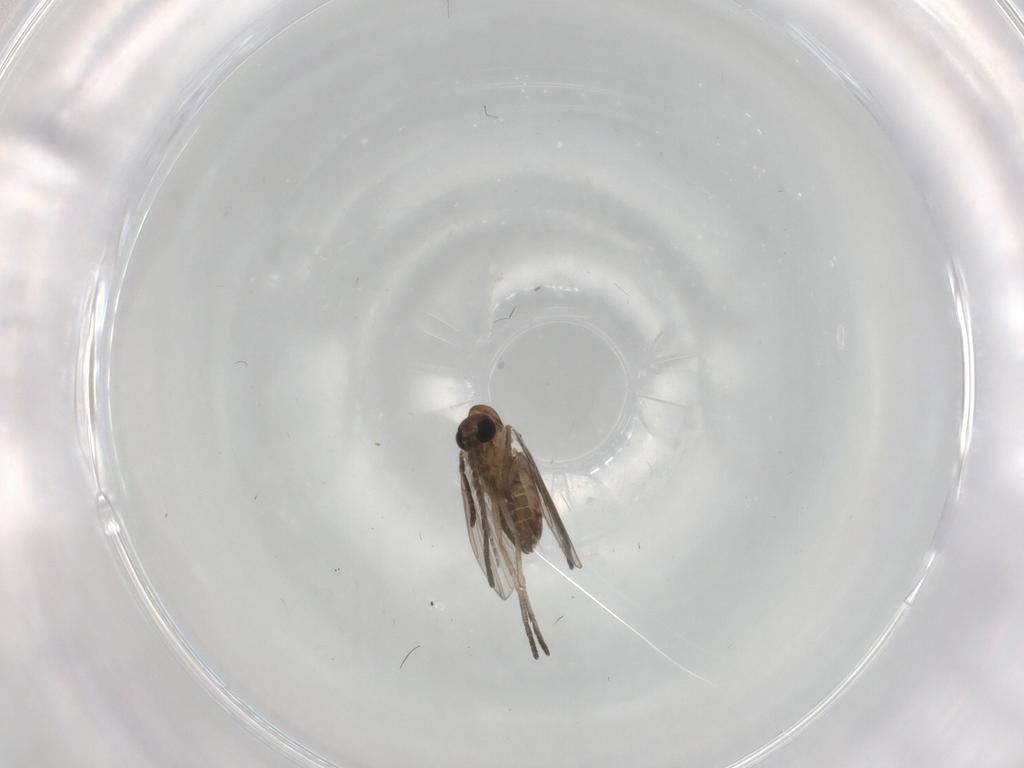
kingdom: Animalia
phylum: Arthropoda
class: Insecta
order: Diptera
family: Psychodidae
